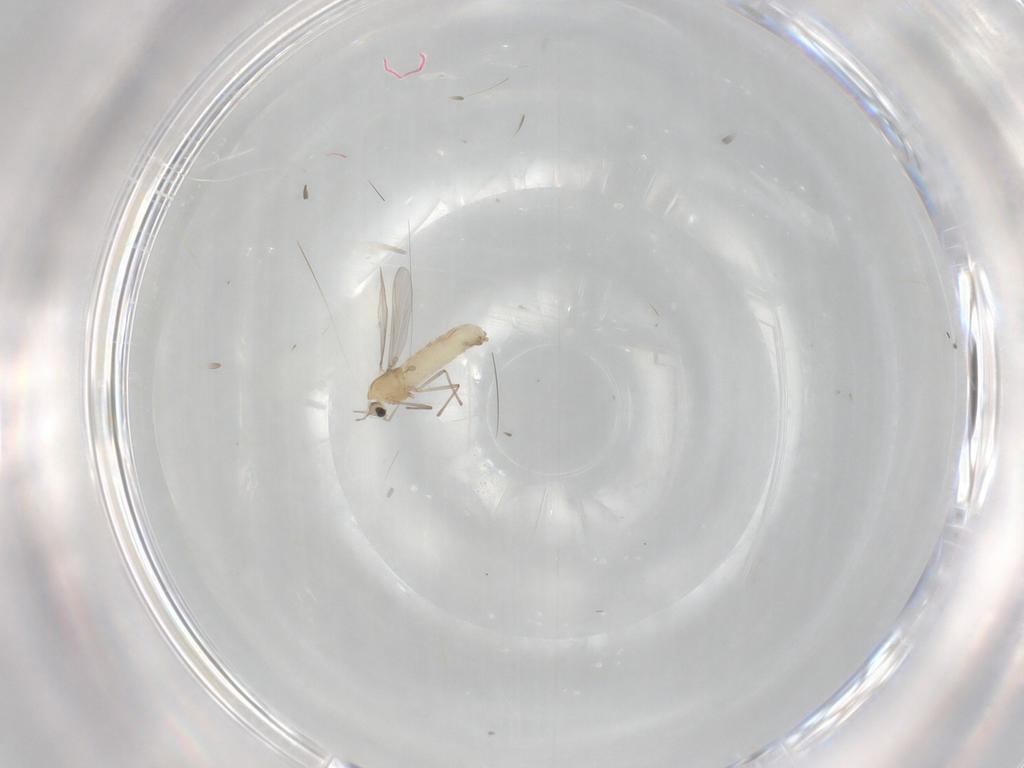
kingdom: Animalia
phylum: Arthropoda
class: Insecta
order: Diptera
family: Chironomidae
